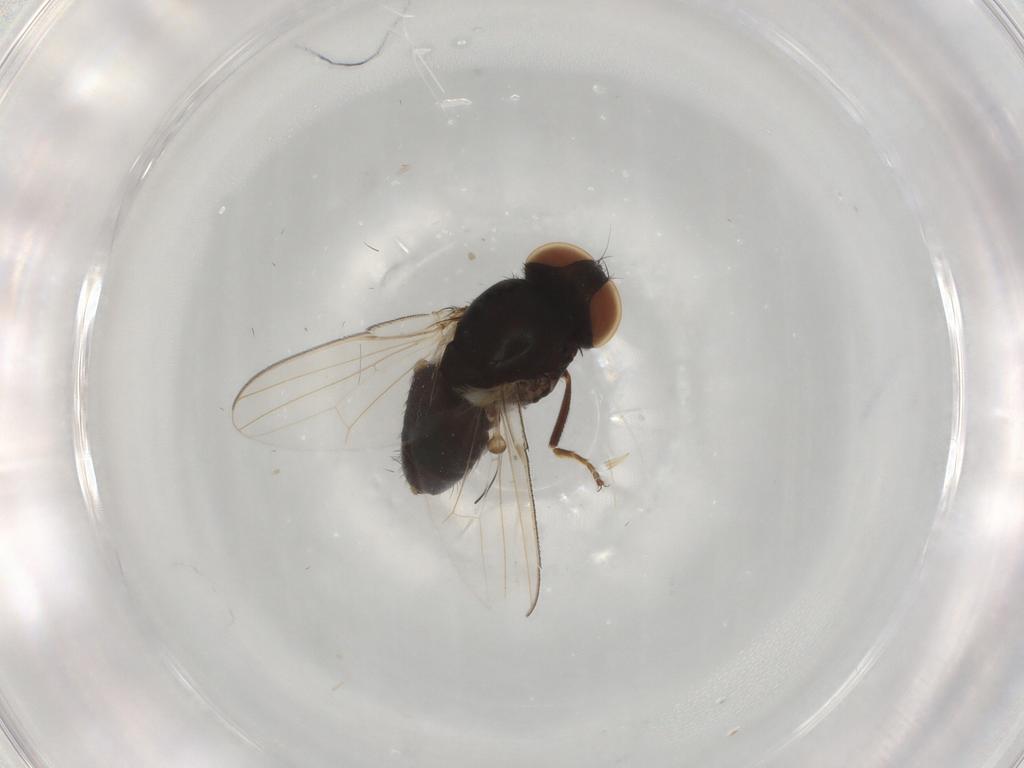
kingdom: Animalia
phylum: Arthropoda
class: Insecta
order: Diptera
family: Milichiidae
